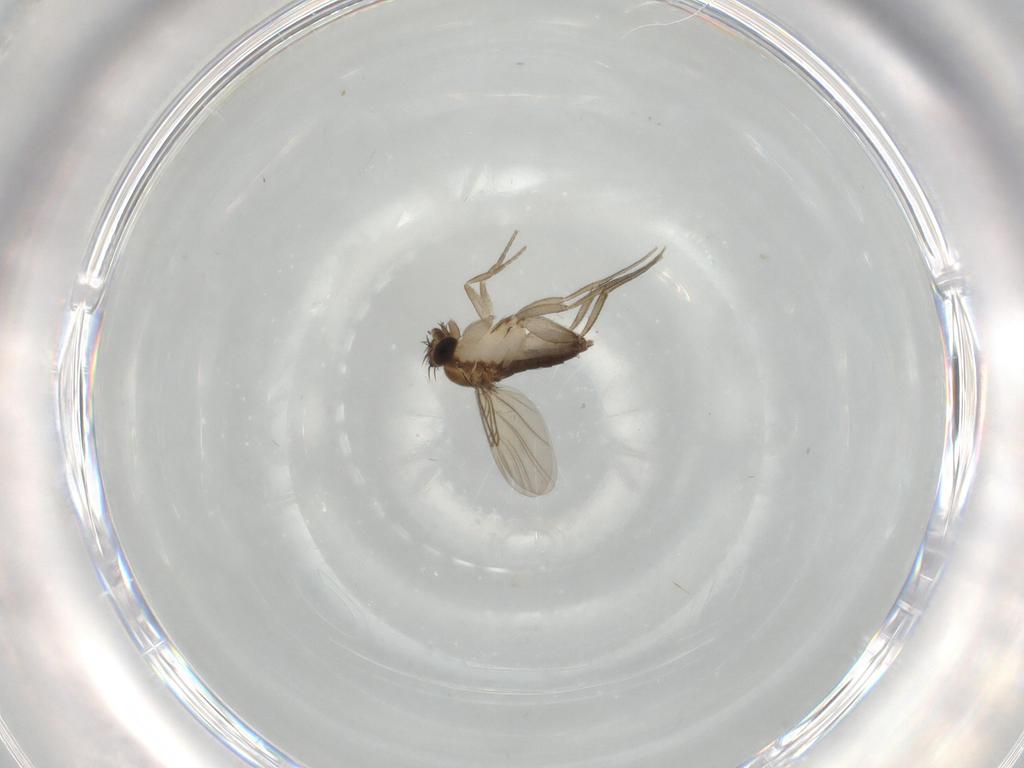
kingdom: Animalia
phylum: Arthropoda
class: Insecta
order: Diptera
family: Phoridae
